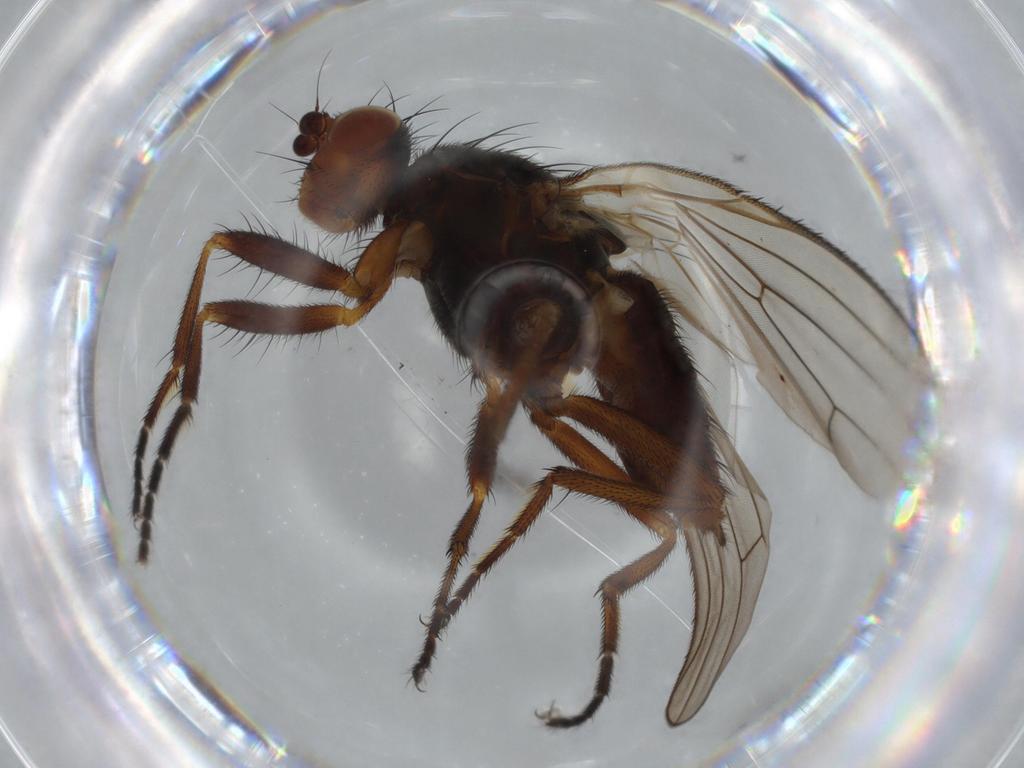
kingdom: Animalia
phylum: Arthropoda
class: Insecta
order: Diptera
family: Heleomyzidae
